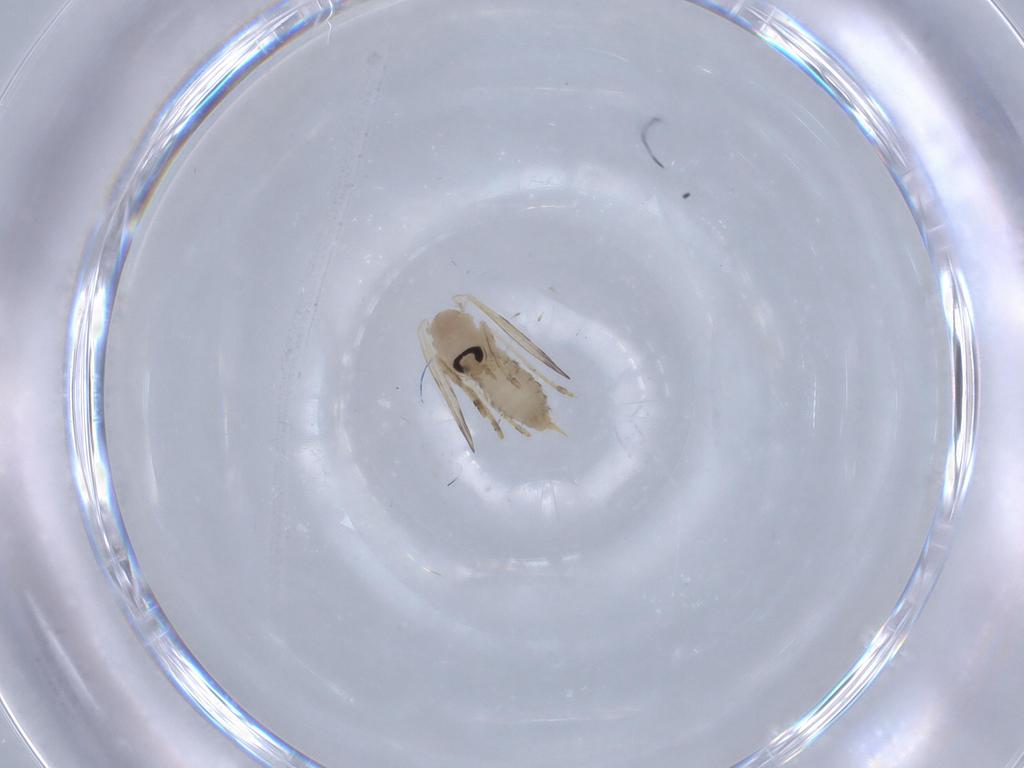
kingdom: Animalia
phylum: Arthropoda
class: Insecta
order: Diptera
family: Psychodidae
